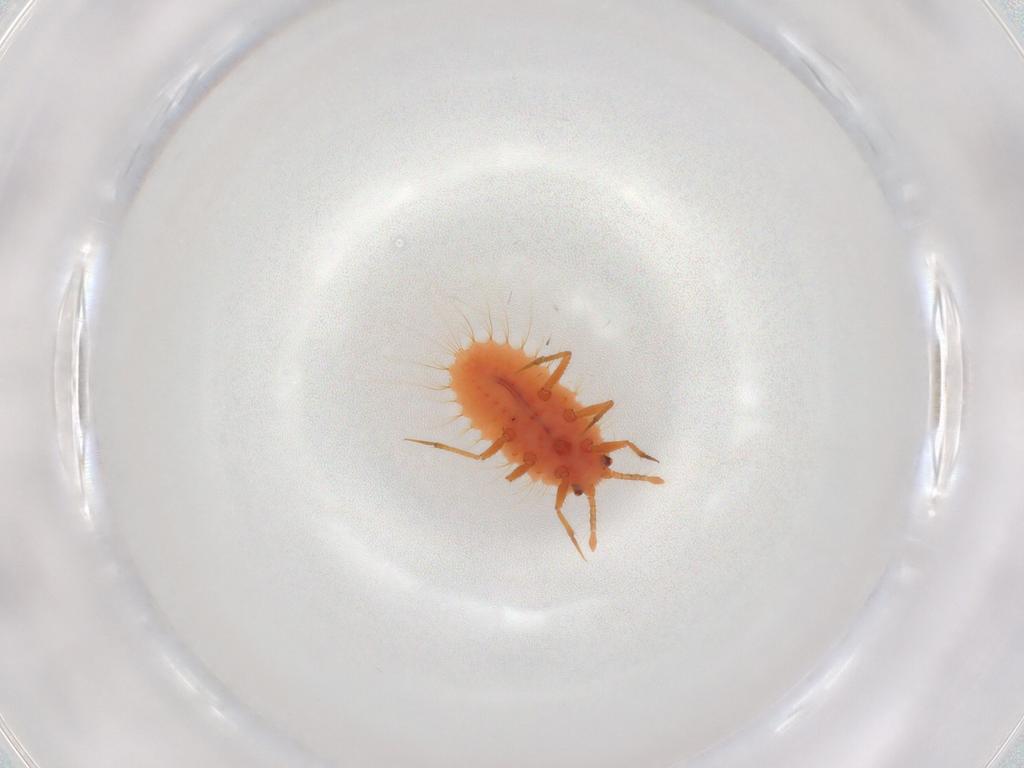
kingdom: Animalia
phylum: Arthropoda
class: Insecta
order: Hemiptera
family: Coccoidea_incertae_sedis
